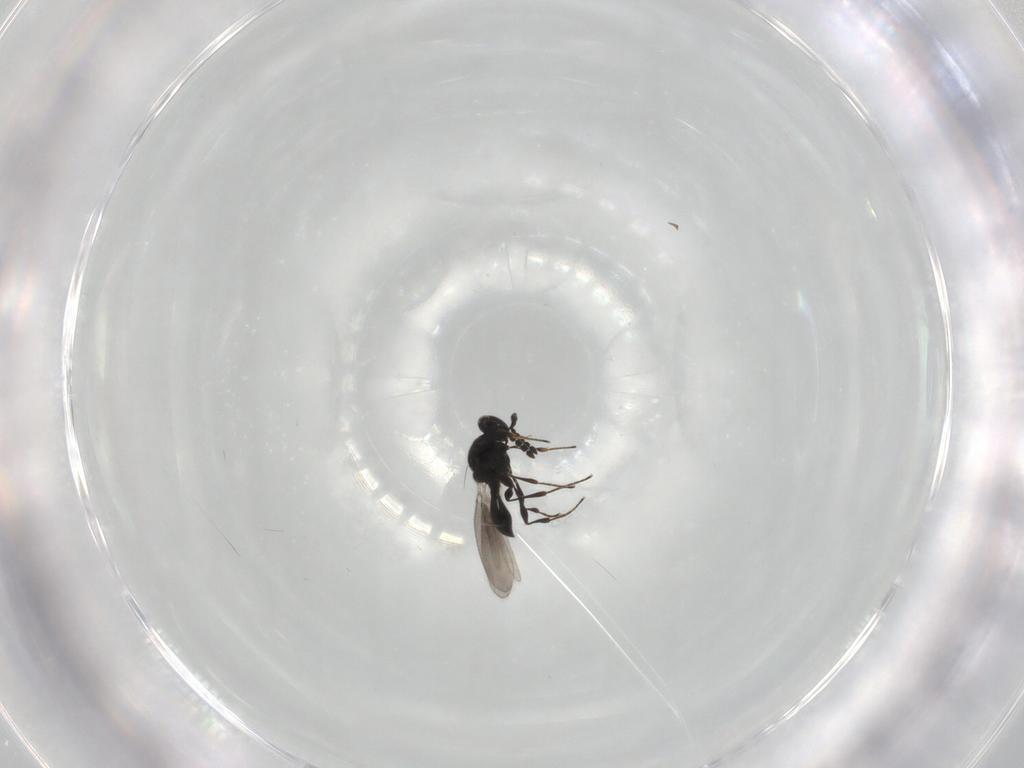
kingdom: Animalia
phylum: Arthropoda
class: Insecta
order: Hymenoptera
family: Platygastridae
